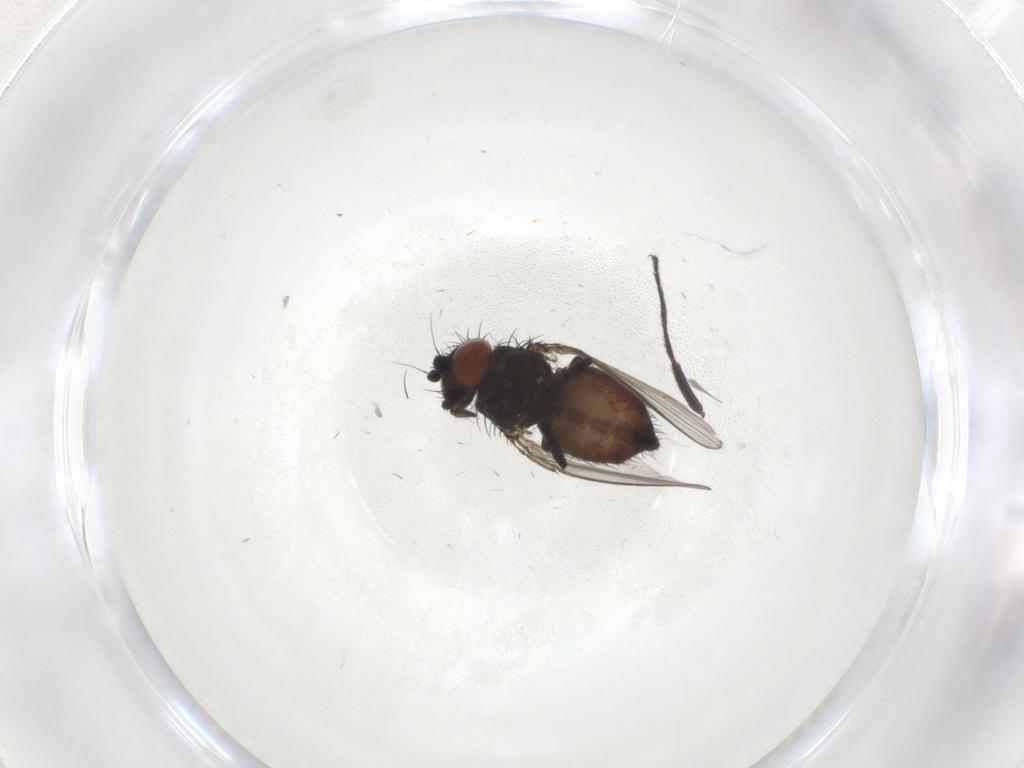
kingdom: Animalia
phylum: Arthropoda
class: Insecta
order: Diptera
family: Milichiidae
